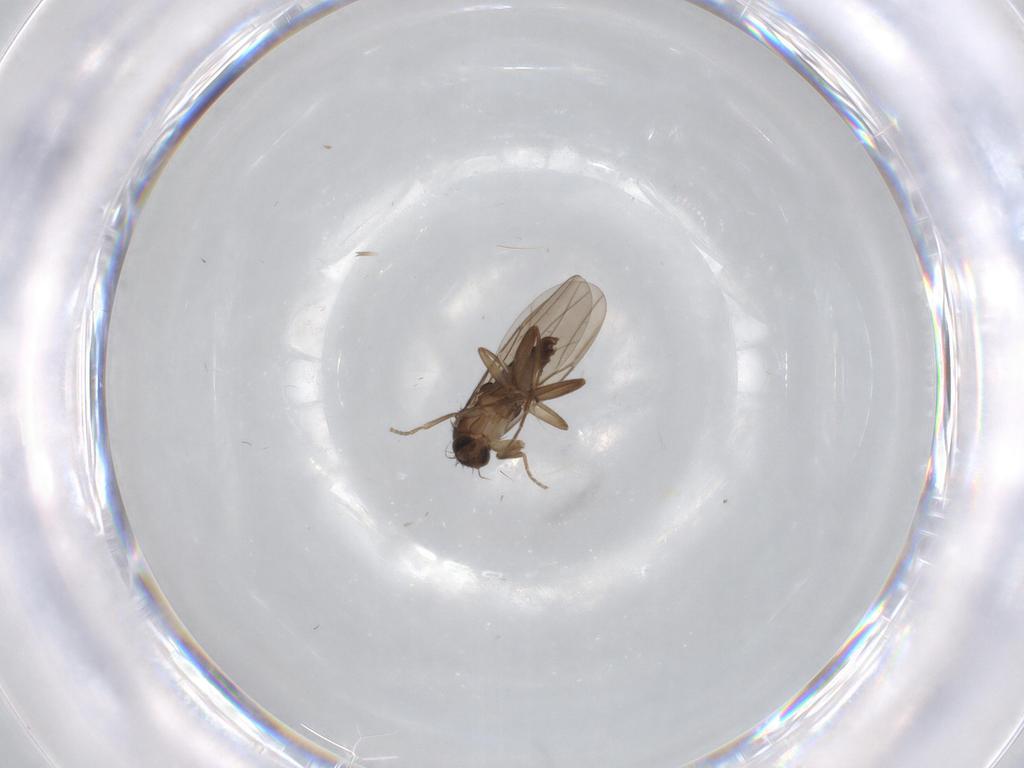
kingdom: Animalia
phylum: Arthropoda
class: Insecta
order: Diptera
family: Phoridae
